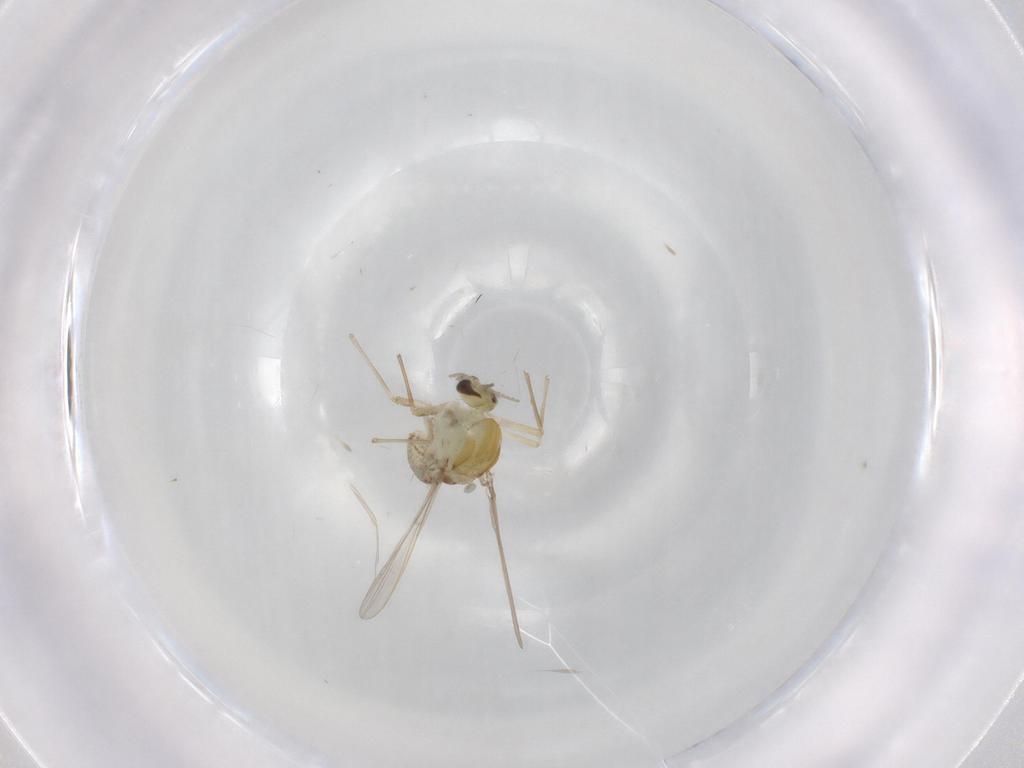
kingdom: Animalia
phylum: Arthropoda
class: Insecta
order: Diptera
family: Chironomidae
